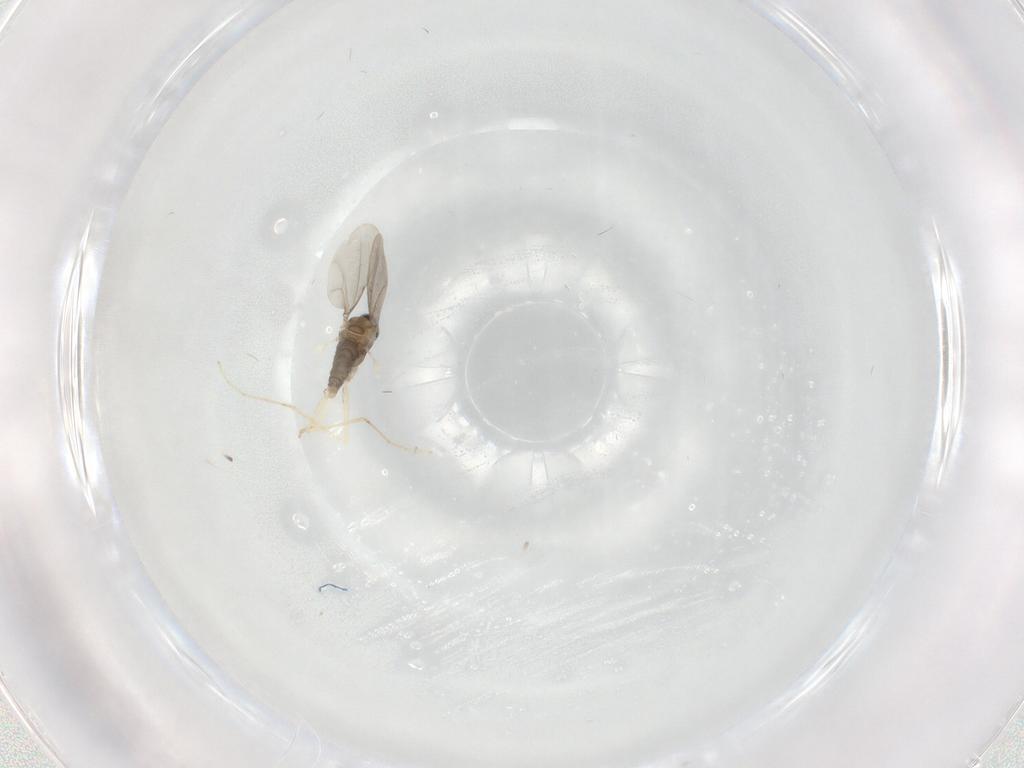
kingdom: Animalia
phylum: Arthropoda
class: Insecta
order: Diptera
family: Cecidomyiidae
